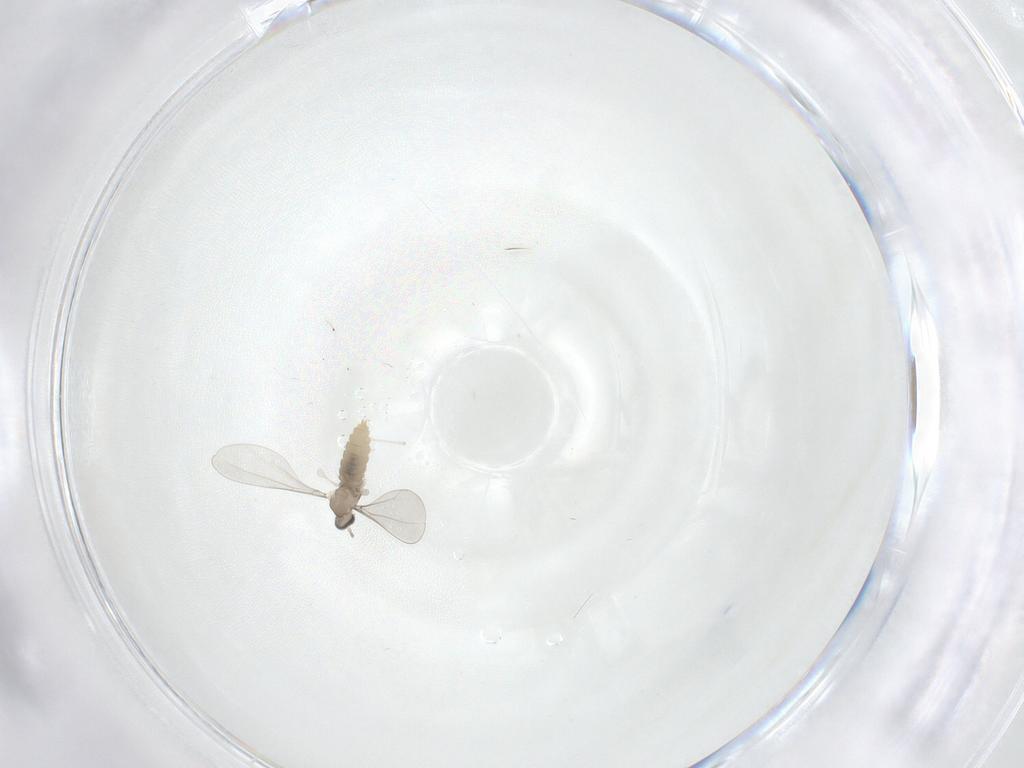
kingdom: Animalia
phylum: Arthropoda
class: Insecta
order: Diptera
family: Cecidomyiidae
